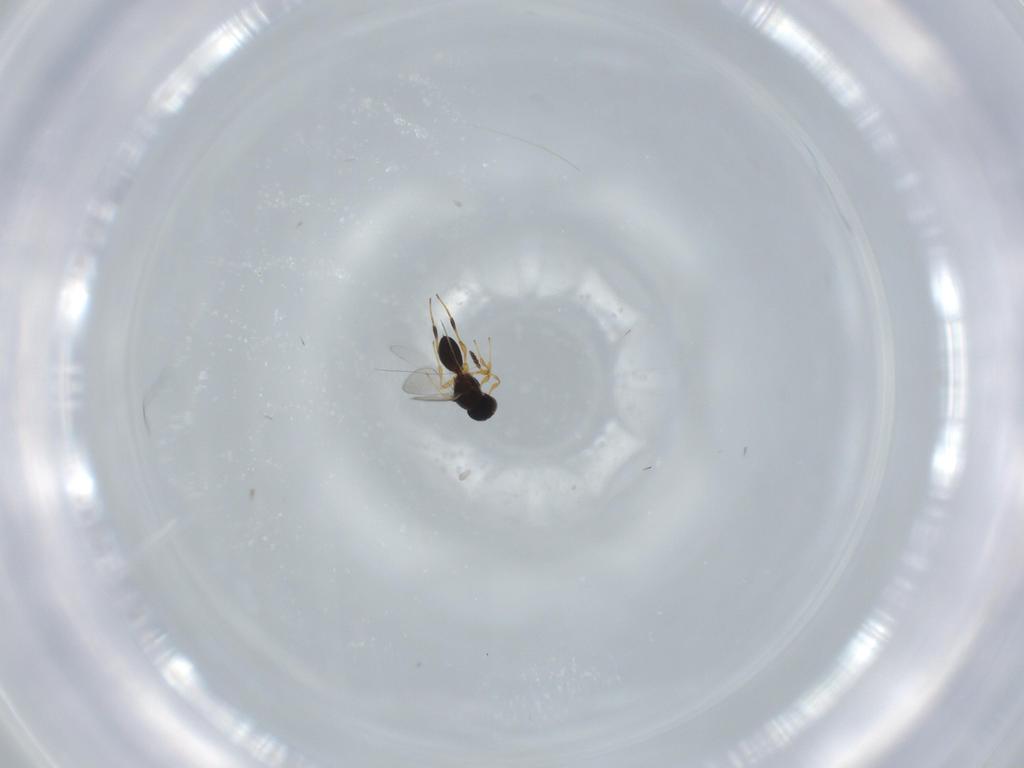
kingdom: Animalia
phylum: Arthropoda
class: Insecta
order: Hymenoptera
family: Platygastridae
